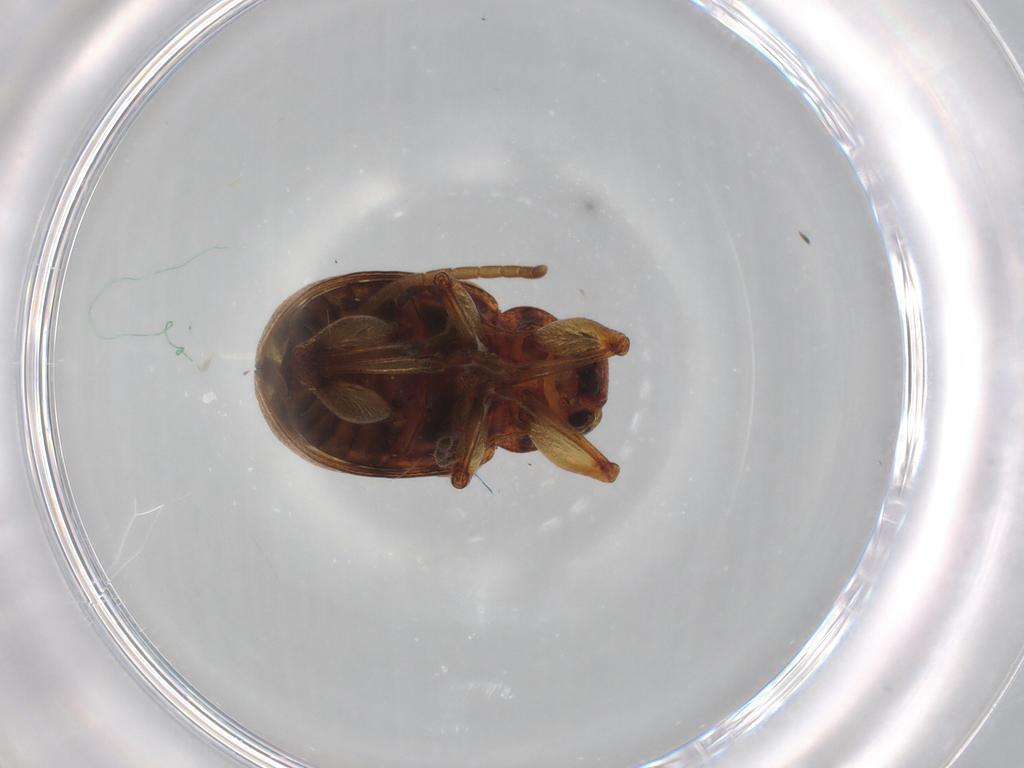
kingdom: Animalia
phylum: Arthropoda
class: Insecta
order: Coleoptera
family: Chrysomelidae
